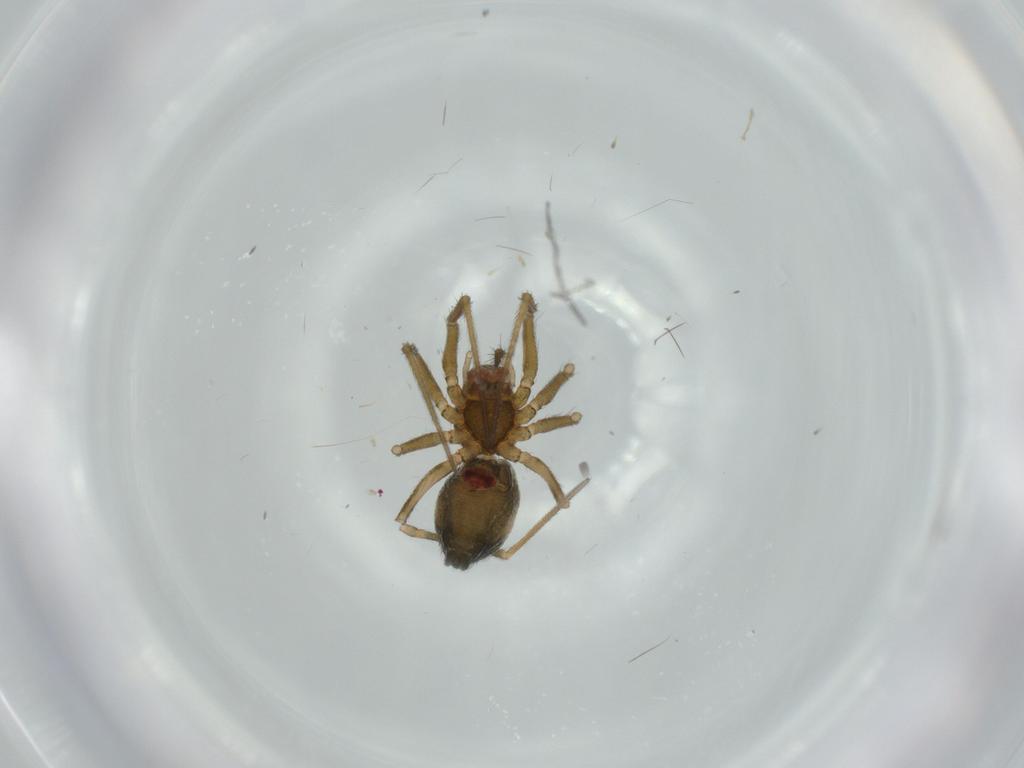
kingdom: Animalia
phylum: Arthropoda
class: Arachnida
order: Araneae
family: Linyphiidae
